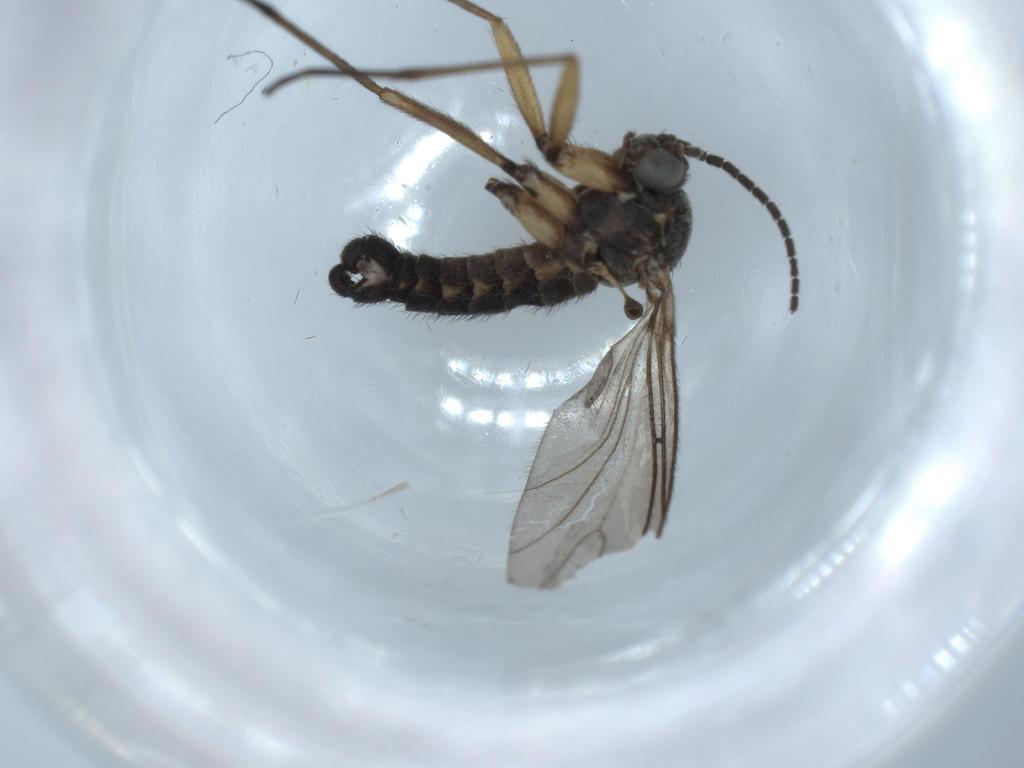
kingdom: Animalia
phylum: Arthropoda
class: Insecta
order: Diptera
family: Sciaridae
